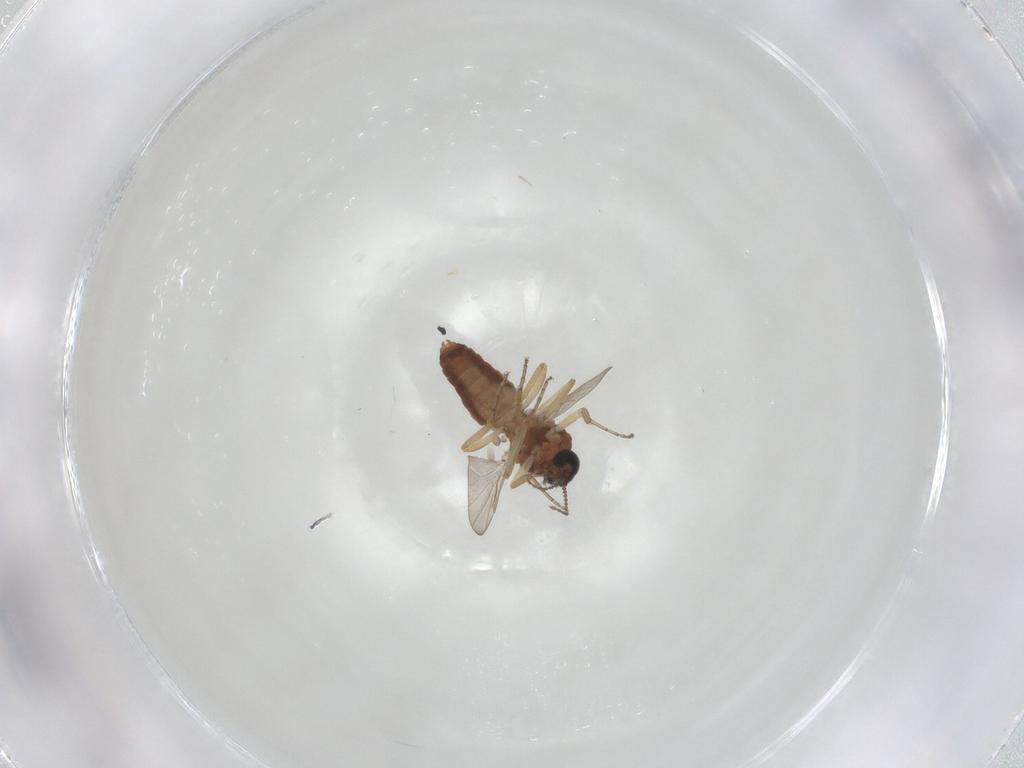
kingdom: Animalia
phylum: Arthropoda
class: Insecta
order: Diptera
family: Ceratopogonidae
